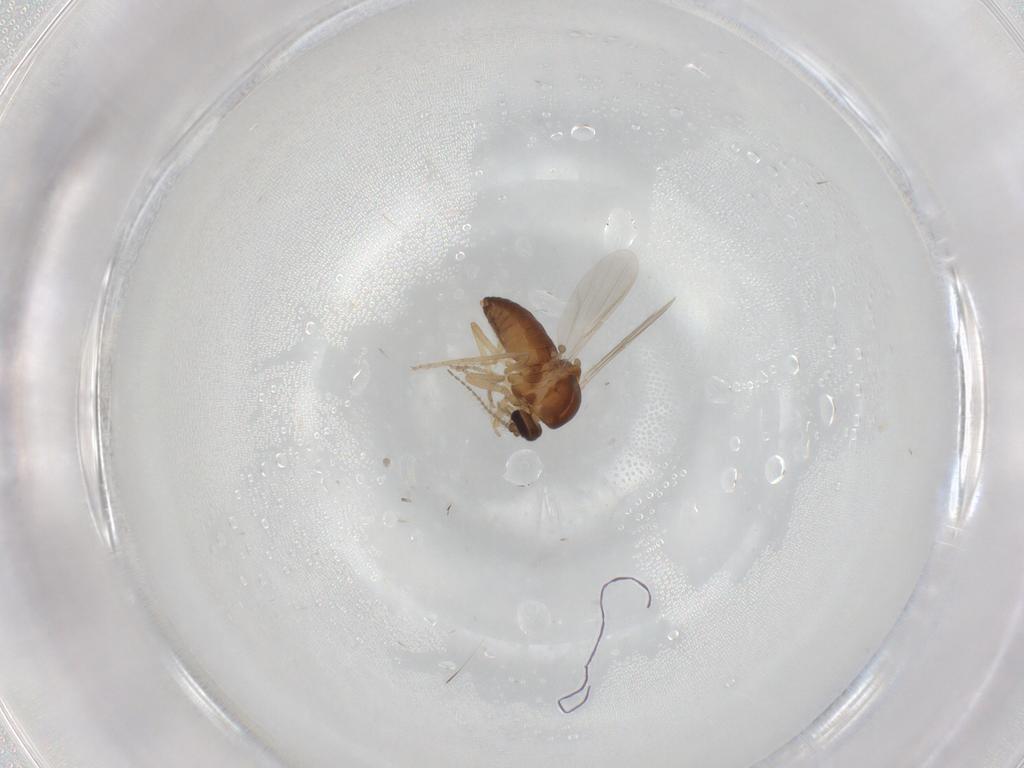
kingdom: Animalia
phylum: Arthropoda
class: Insecta
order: Diptera
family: Ceratopogonidae
